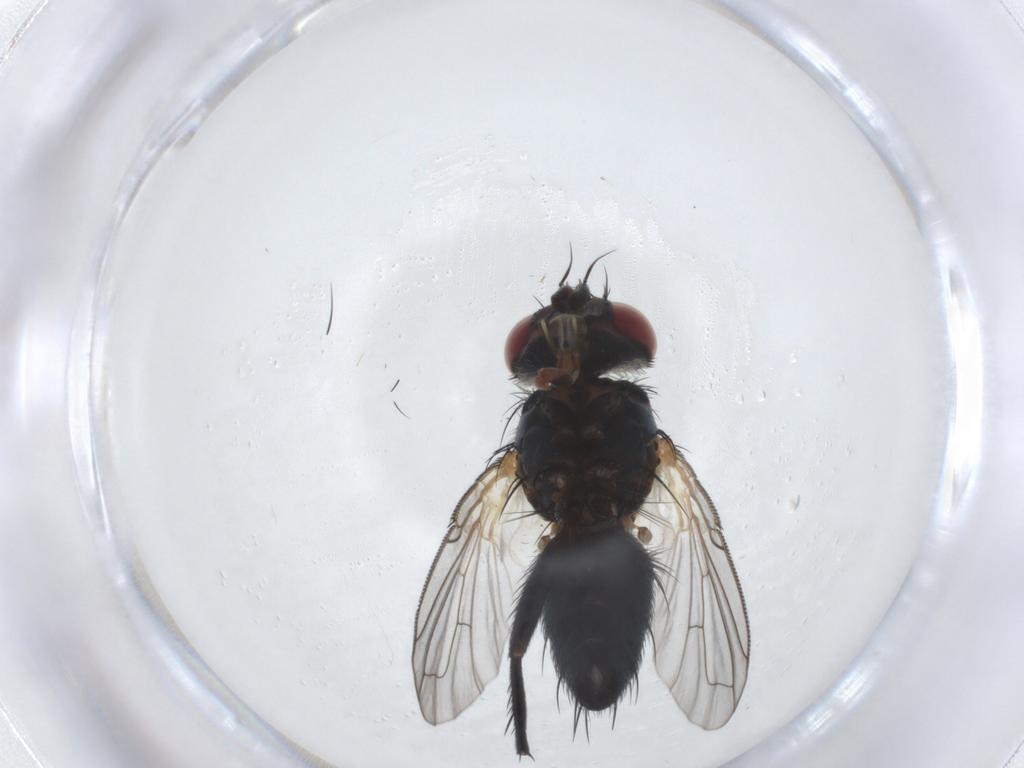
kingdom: Animalia
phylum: Arthropoda
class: Insecta
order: Diptera
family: Tachinidae
